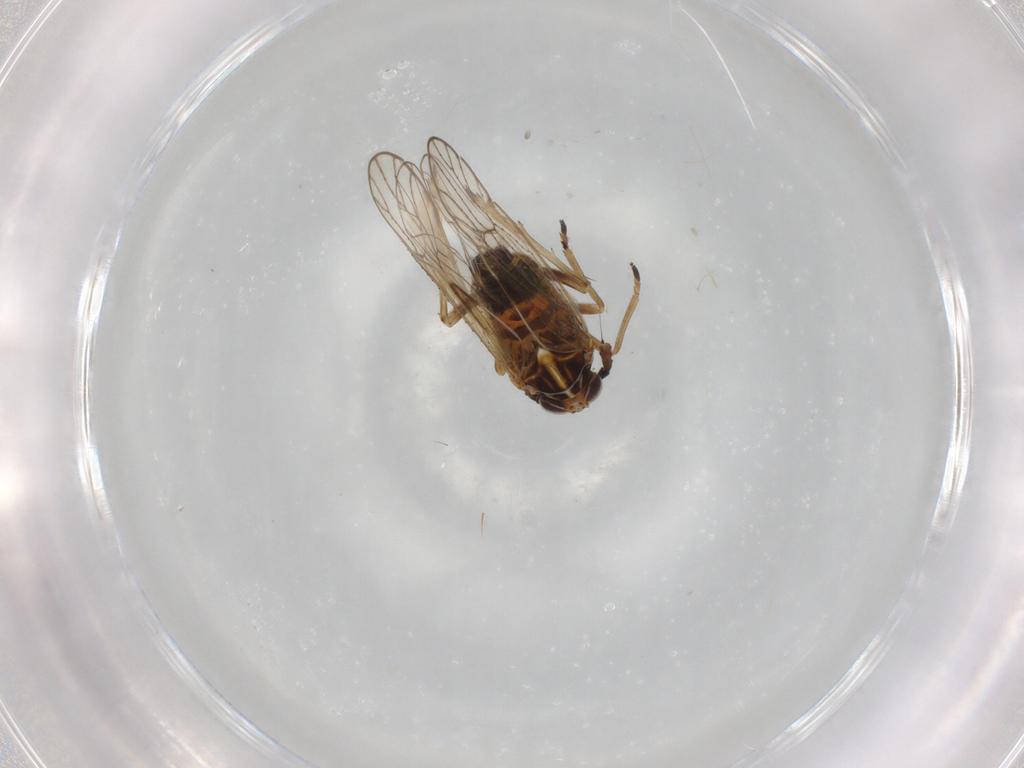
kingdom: Animalia
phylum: Arthropoda
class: Insecta
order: Hemiptera
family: Delphacidae
